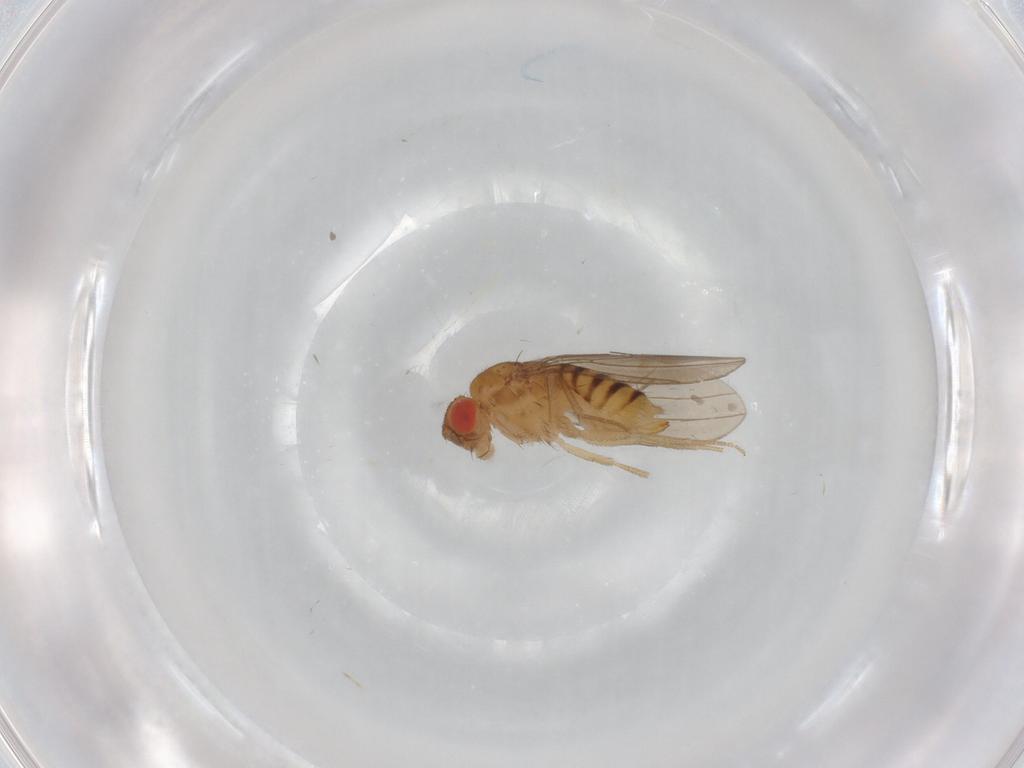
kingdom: Animalia
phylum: Arthropoda
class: Insecta
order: Diptera
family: Drosophilidae
